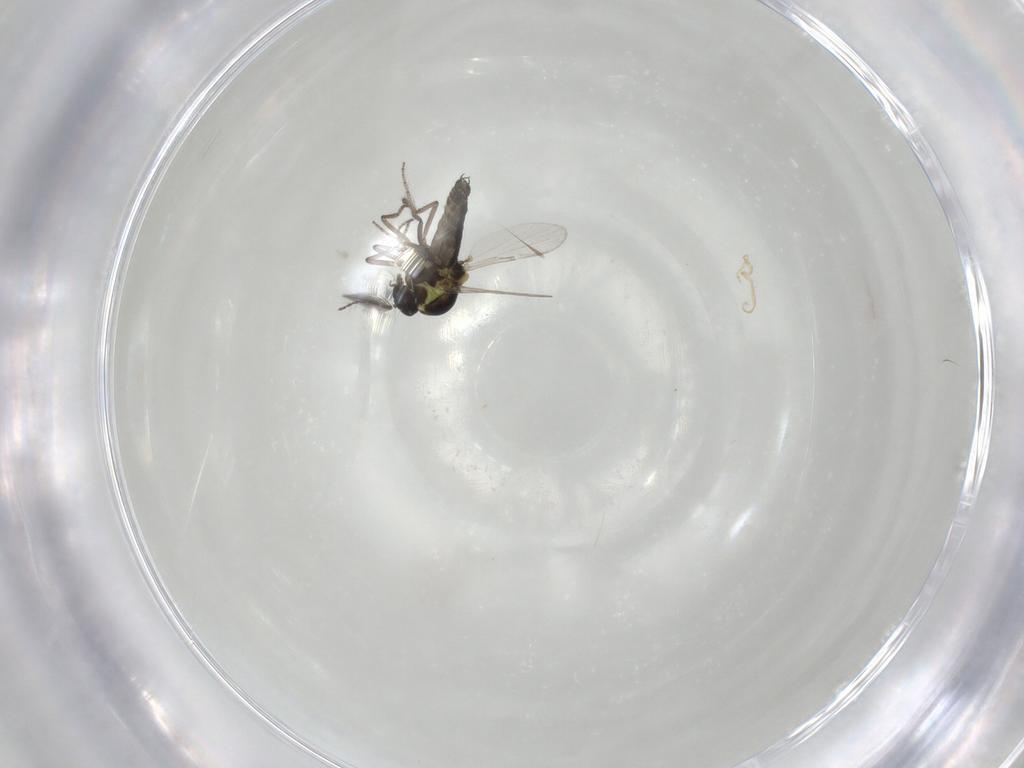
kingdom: Animalia
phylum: Arthropoda
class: Insecta
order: Diptera
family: Ceratopogonidae
